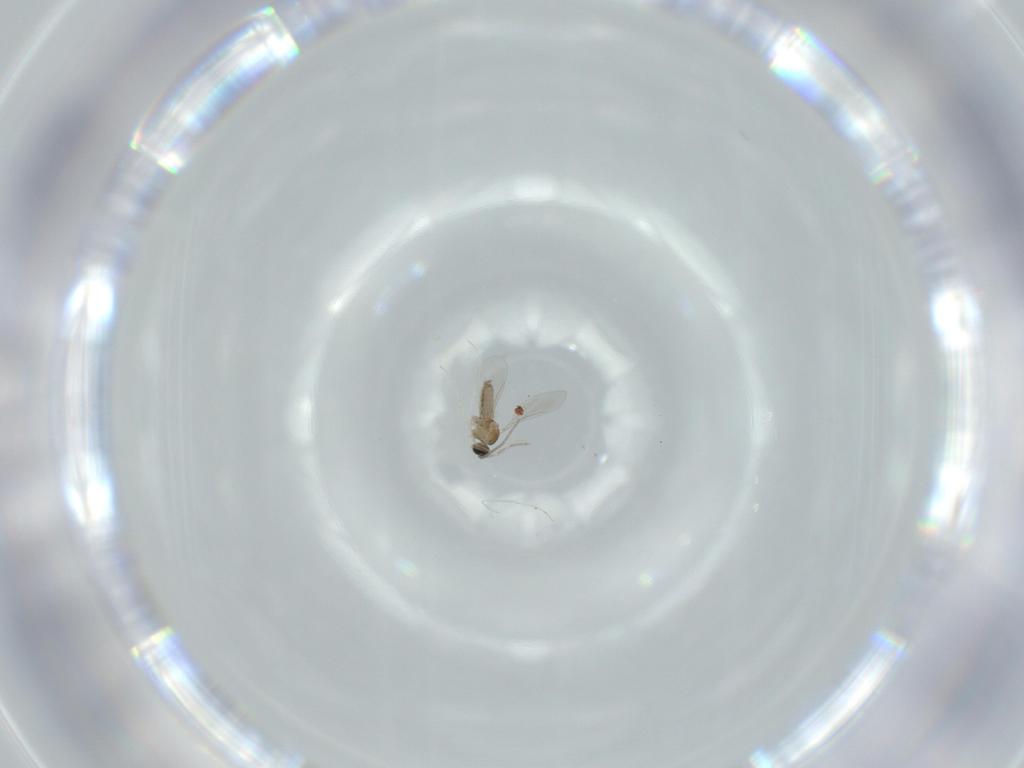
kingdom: Animalia
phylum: Arthropoda
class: Insecta
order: Diptera
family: Cecidomyiidae
